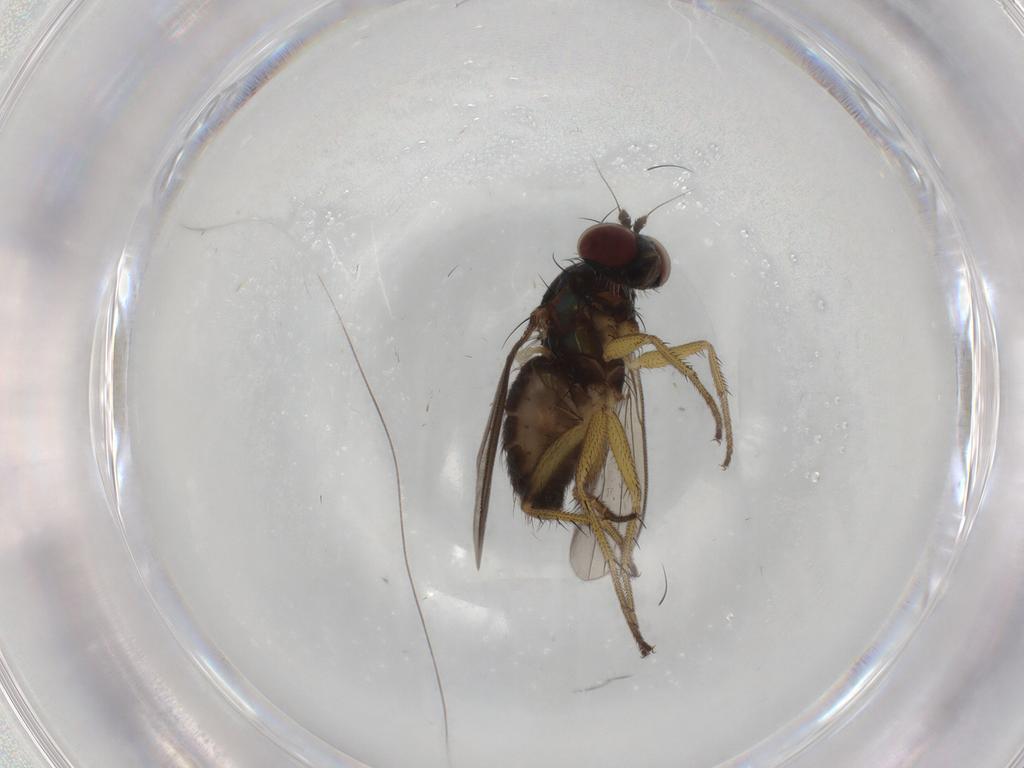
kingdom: Animalia
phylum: Arthropoda
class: Insecta
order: Diptera
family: Dolichopodidae
